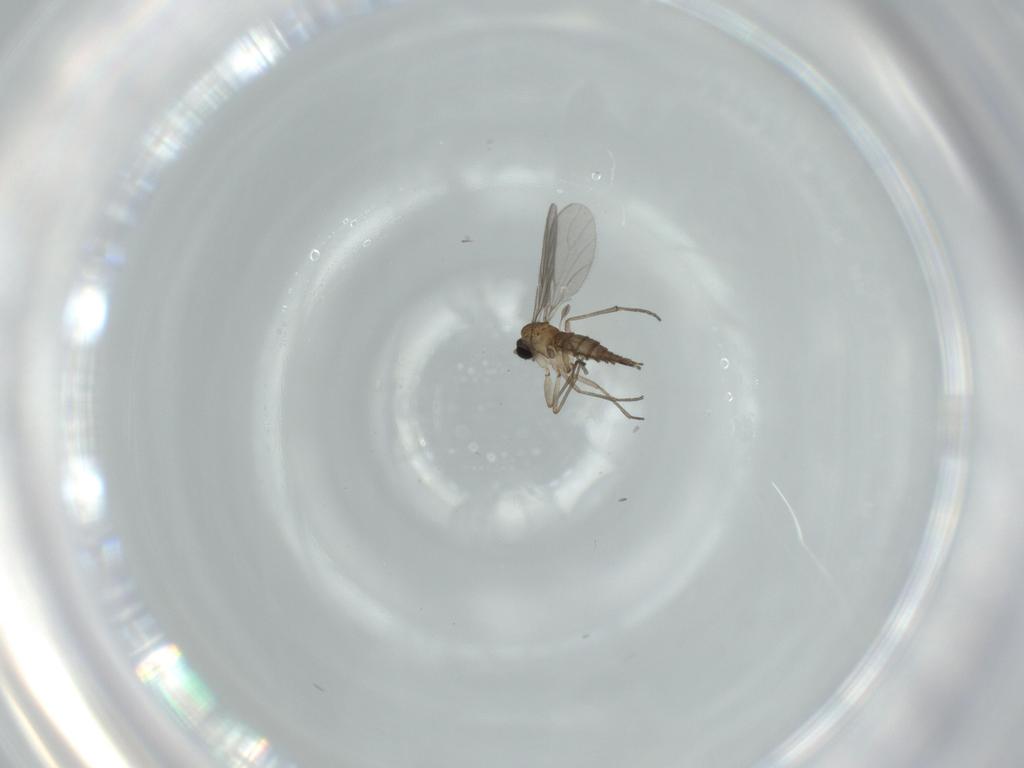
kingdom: Animalia
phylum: Arthropoda
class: Insecta
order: Diptera
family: Sciaridae
